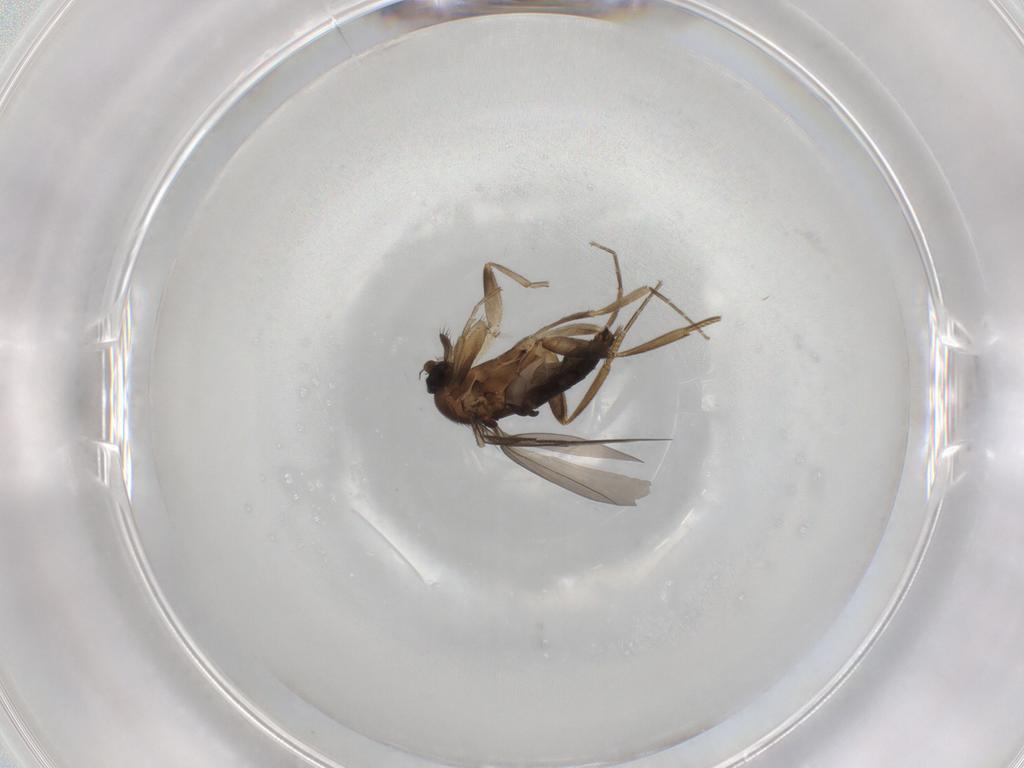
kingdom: Animalia
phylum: Arthropoda
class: Insecta
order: Diptera
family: Phoridae
